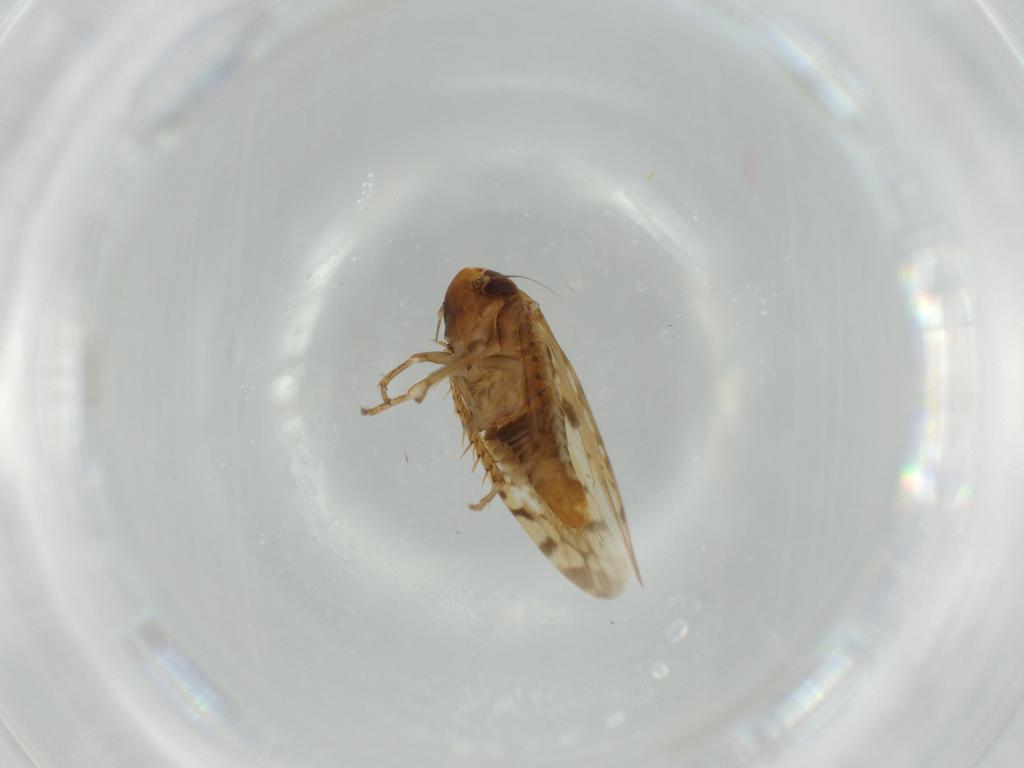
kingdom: Animalia
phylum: Arthropoda
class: Insecta
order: Hemiptera
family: Cicadellidae
